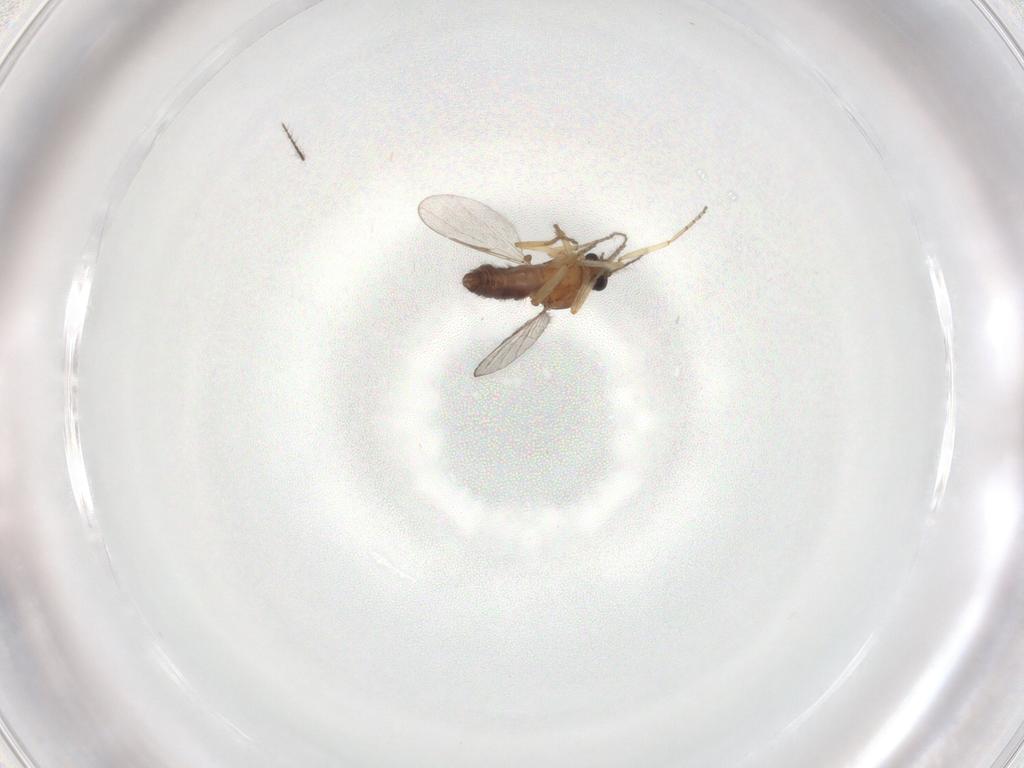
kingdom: Animalia
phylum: Arthropoda
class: Insecta
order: Diptera
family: Ceratopogonidae
